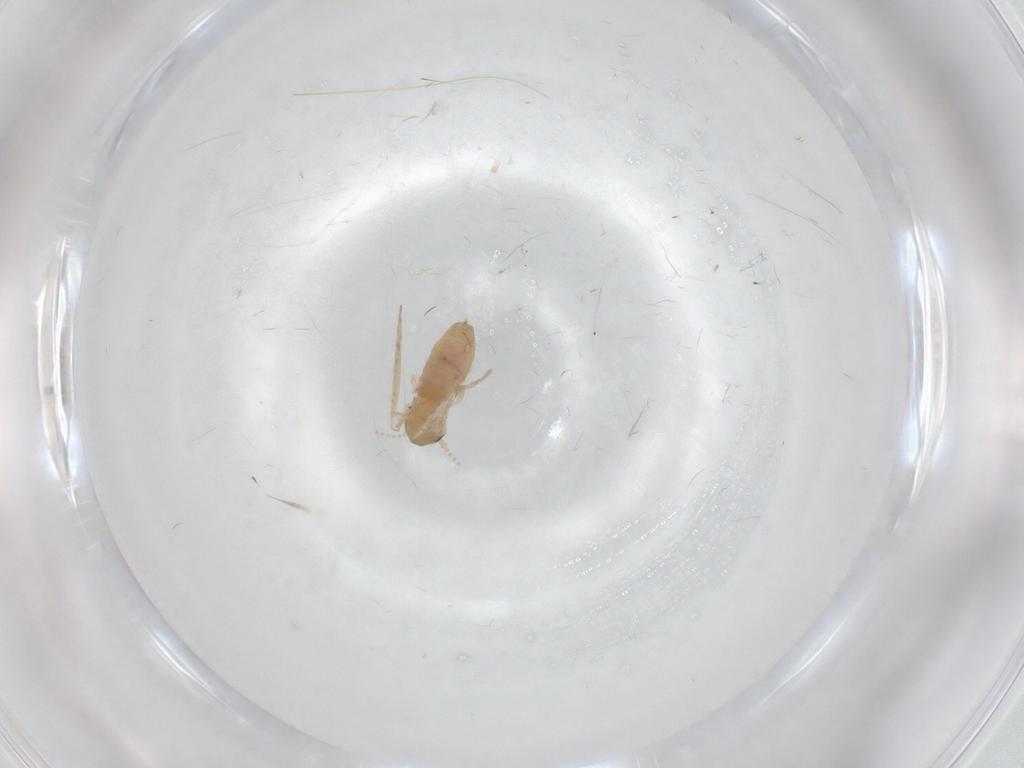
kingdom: Animalia
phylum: Arthropoda
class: Insecta
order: Diptera
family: Psychodidae
